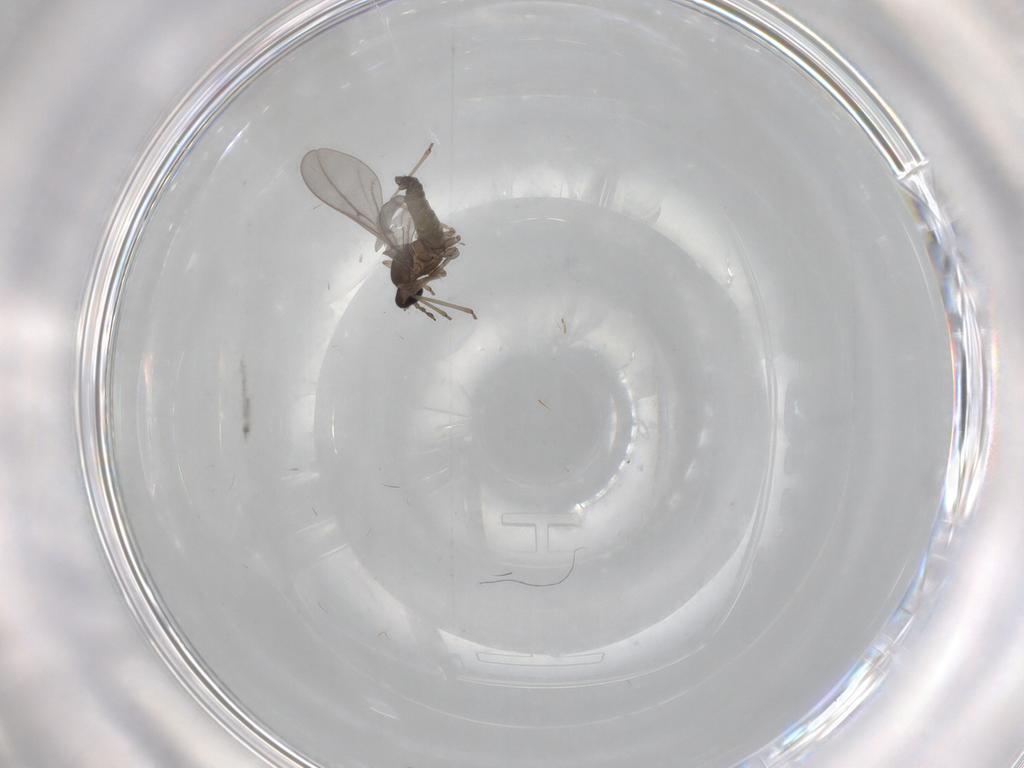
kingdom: Animalia
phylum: Arthropoda
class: Insecta
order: Diptera
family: Cecidomyiidae
